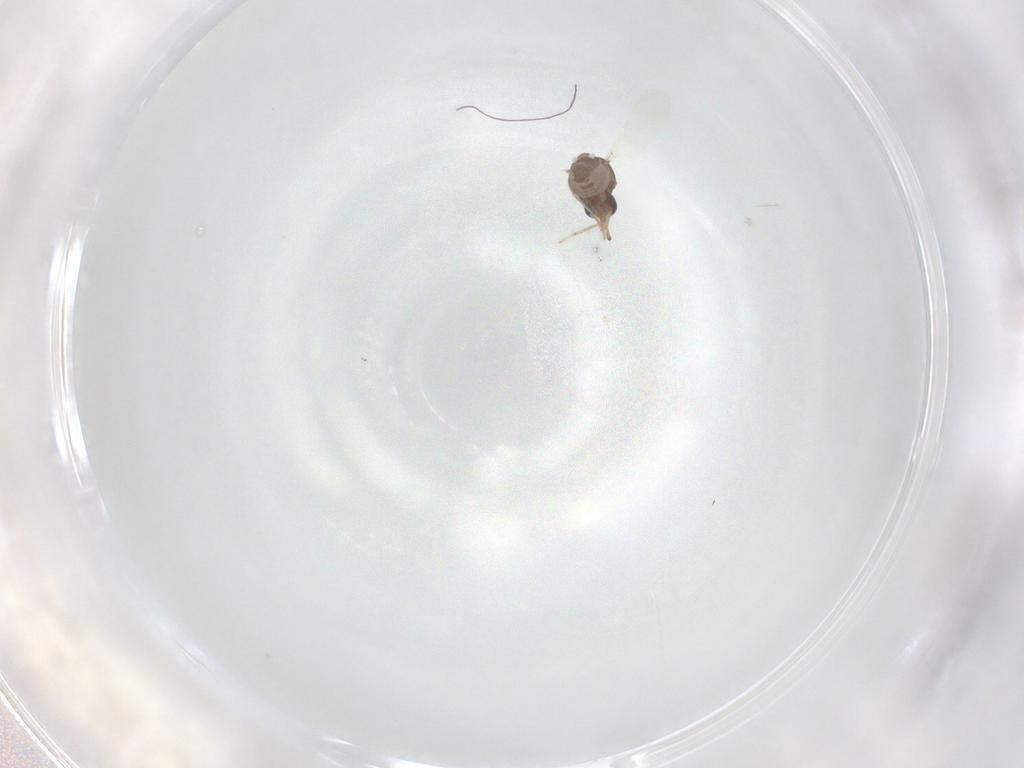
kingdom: Animalia
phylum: Arthropoda
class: Insecta
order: Diptera
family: Ceratopogonidae
